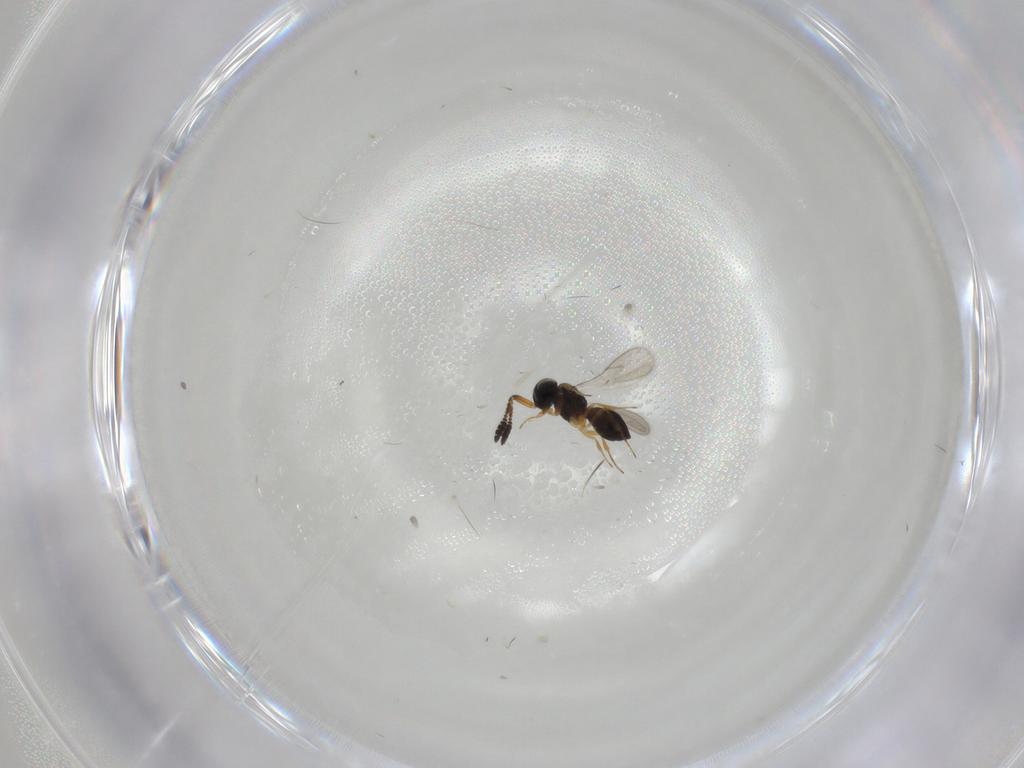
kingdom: Animalia
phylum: Arthropoda
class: Insecta
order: Hymenoptera
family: Scelionidae
